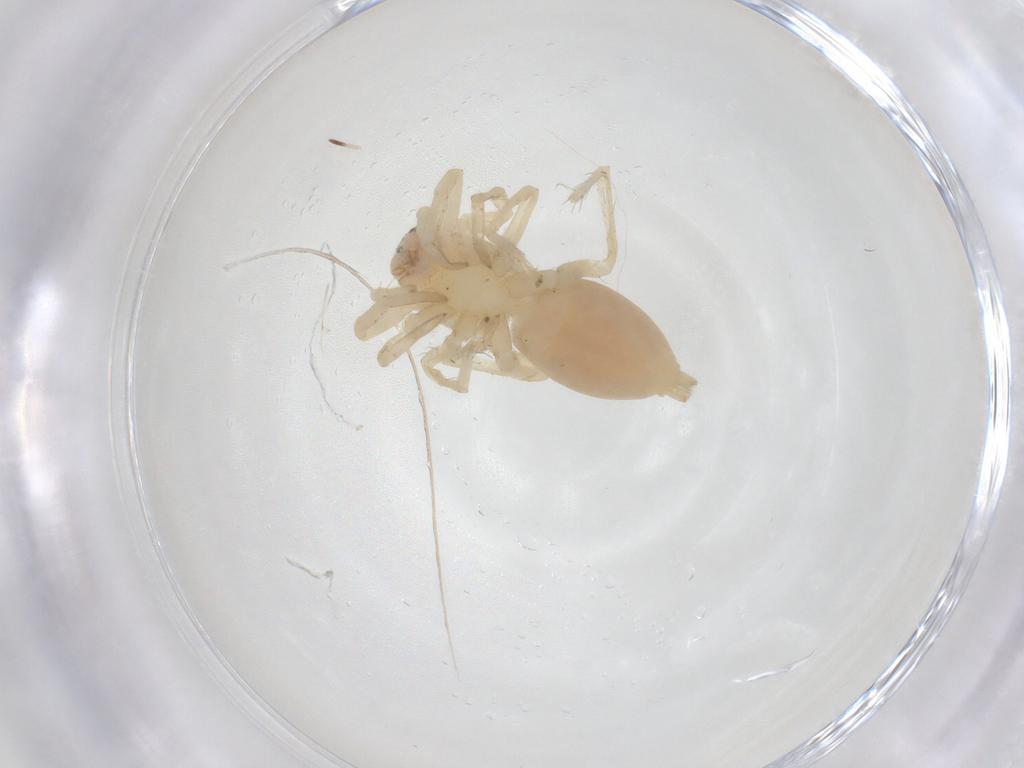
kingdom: Animalia
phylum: Arthropoda
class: Arachnida
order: Araneae
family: Clubionidae
